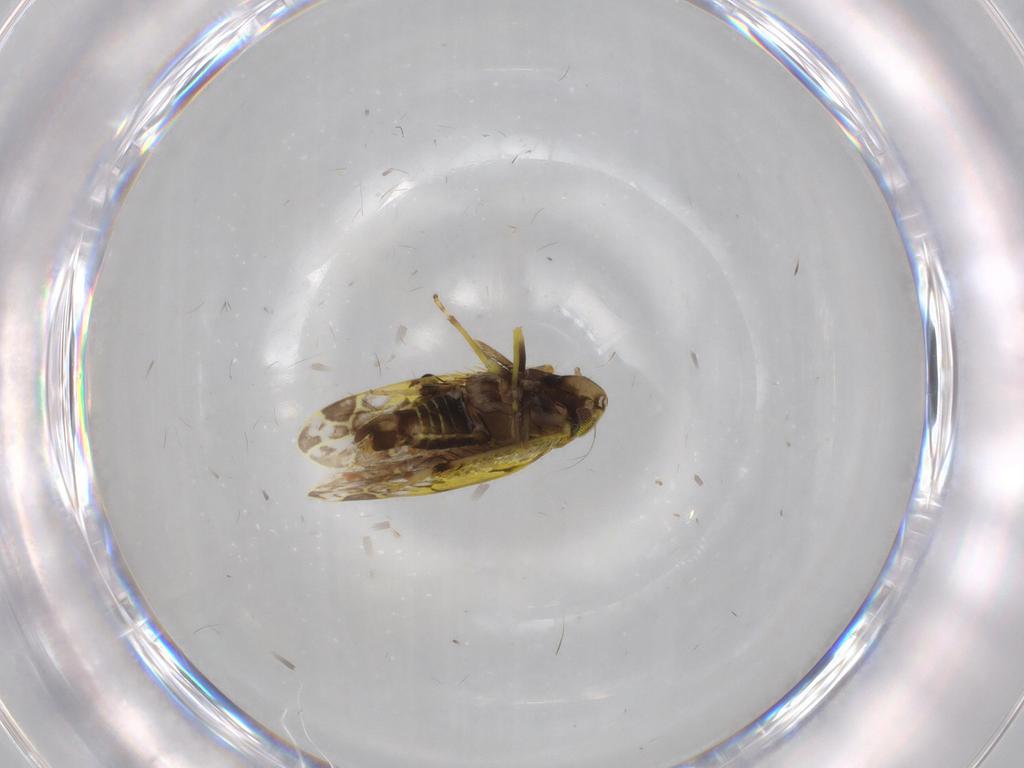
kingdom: Animalia
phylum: Arthropoda
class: Insecta
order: Hemiptera
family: Cicadellidae
